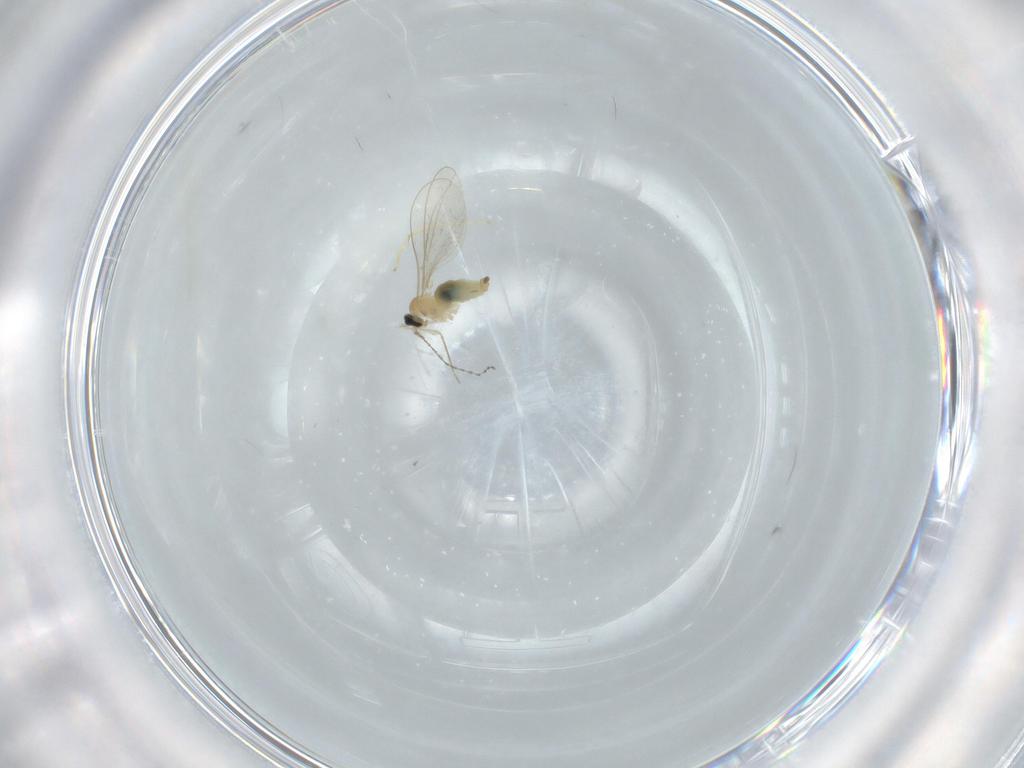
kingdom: Animalia
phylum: Arthropoda
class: Insecta
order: Diptera
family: Cecidomyiidae
